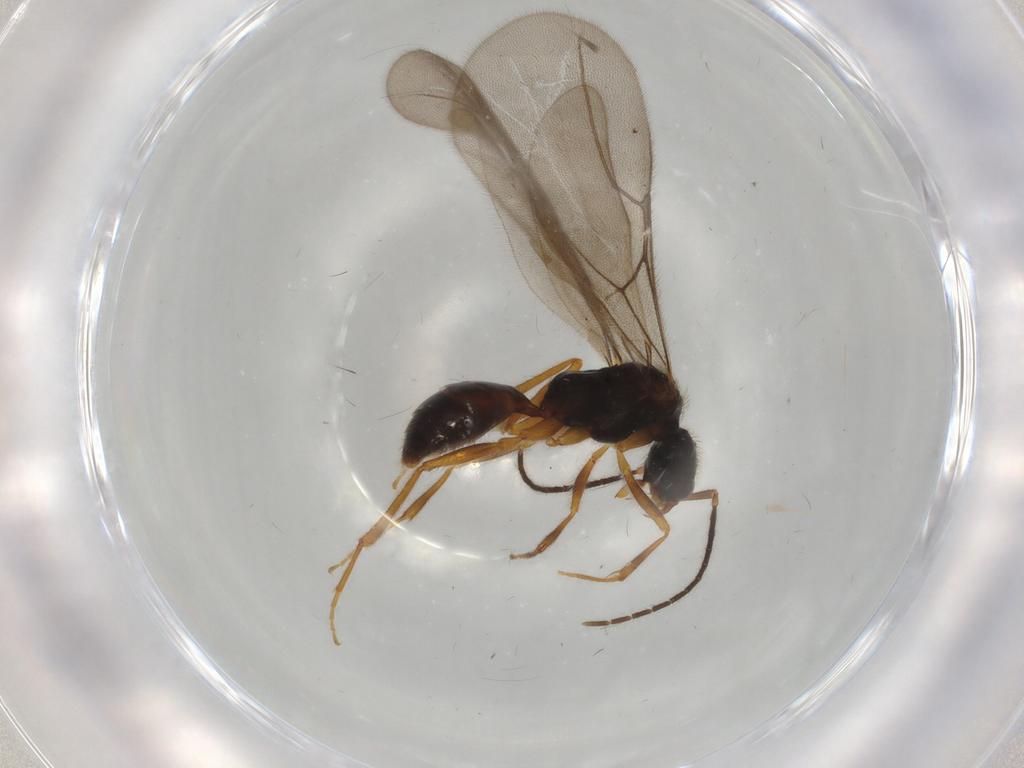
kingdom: Animalia
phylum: Arthropoda
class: Insecta
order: Hymenoptera
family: Bethylidae
